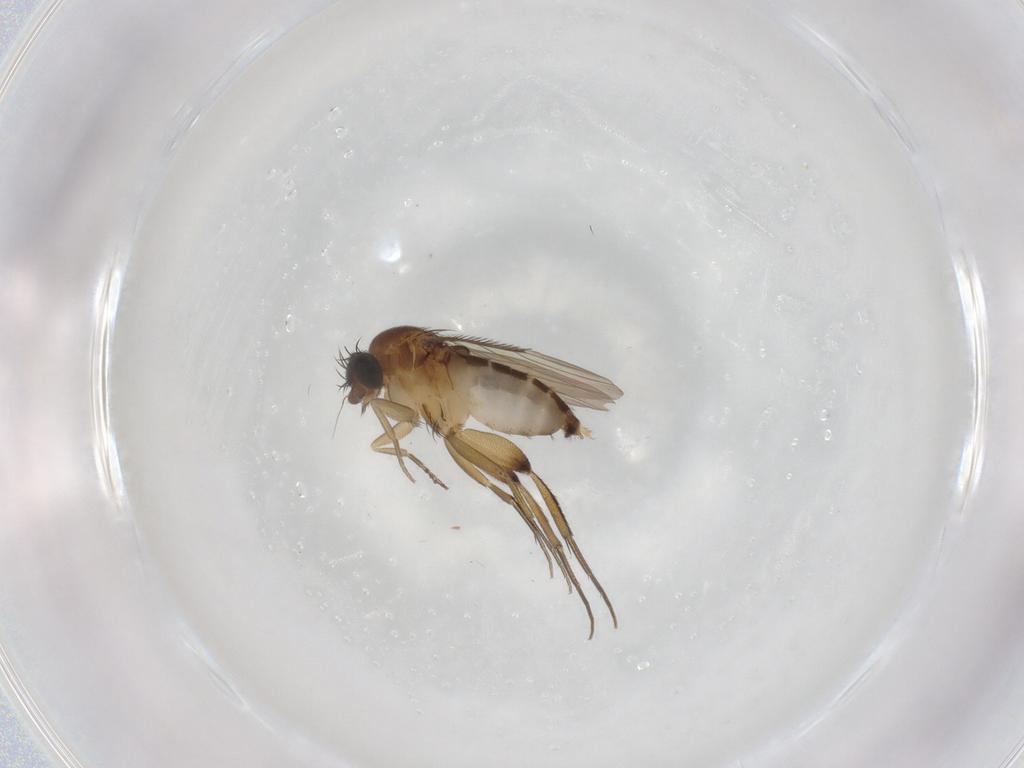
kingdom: Animalia
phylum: Arthropoda
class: Insecta
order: Diptera
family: Phoridae
